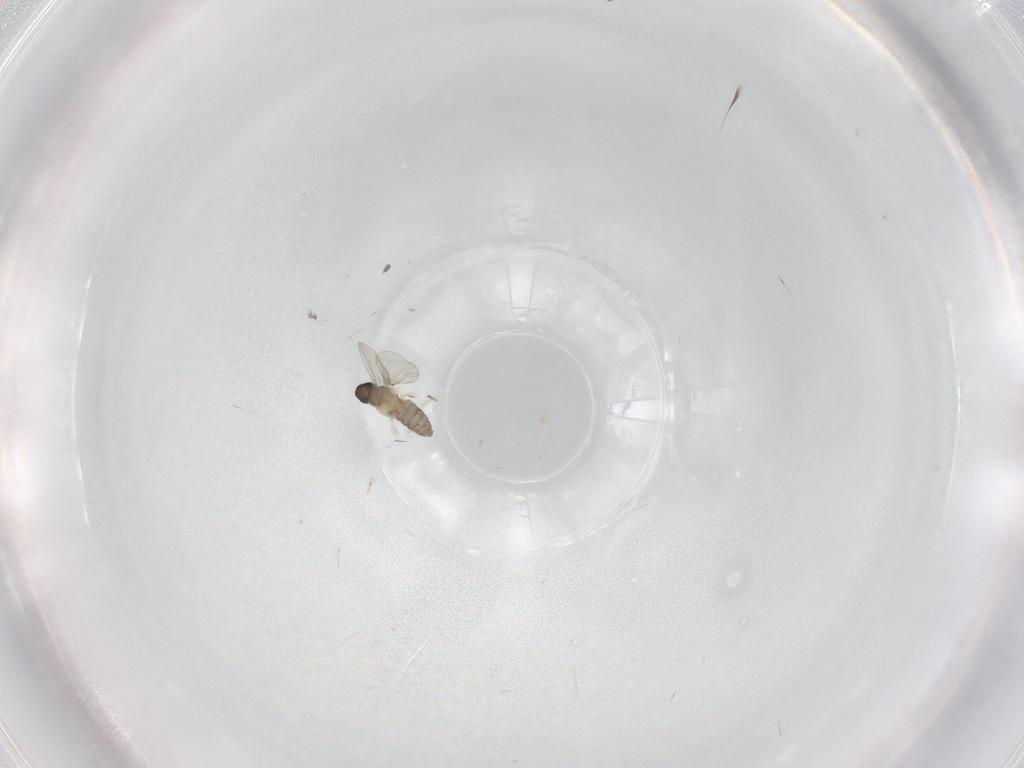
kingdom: Animalia
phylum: Arthropoda
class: Insecta
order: Diptera
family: Cecidomyiidae
